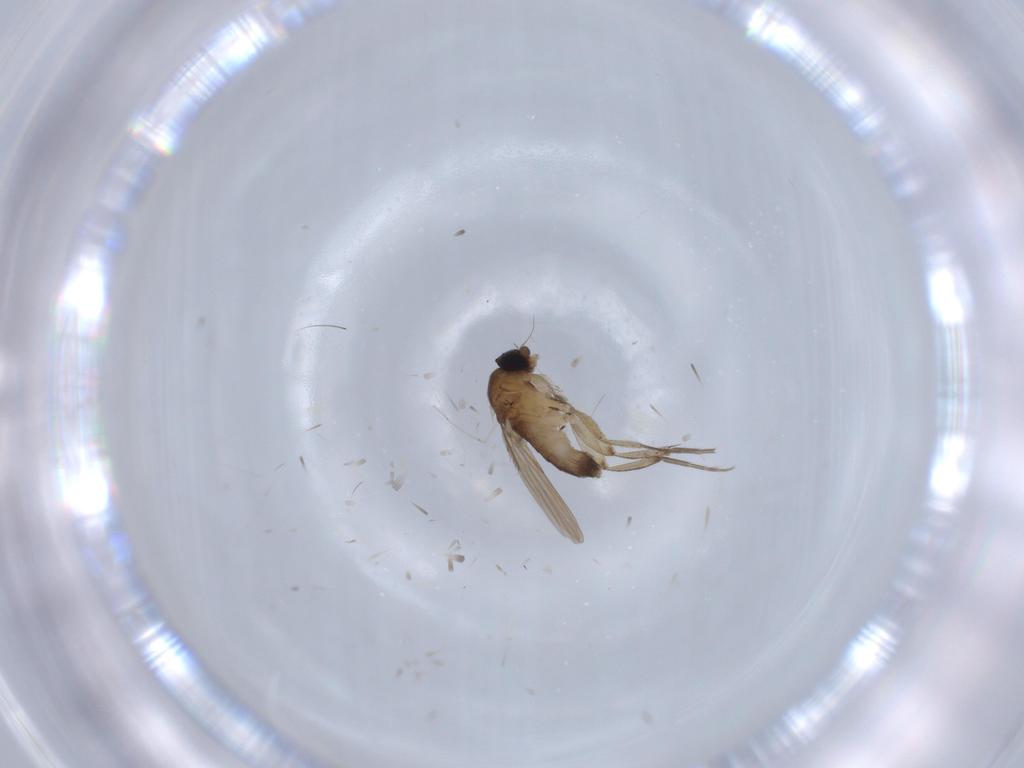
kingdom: Animalia
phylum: Arthropoda
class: Insecta
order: Diptera
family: Phoridae
